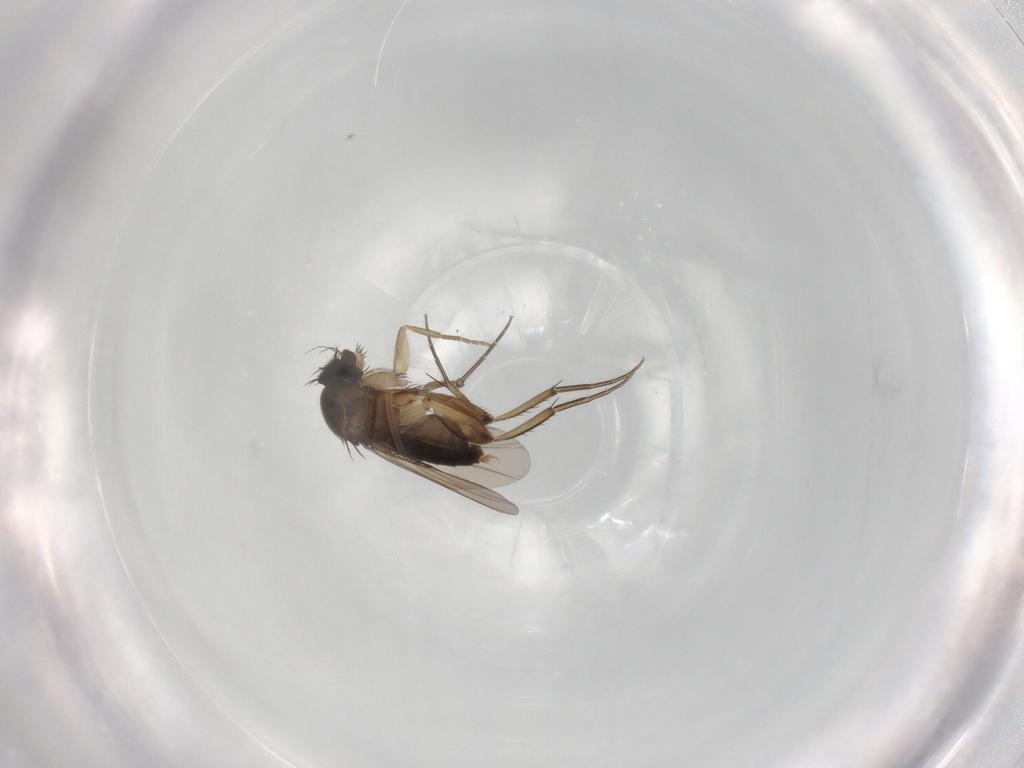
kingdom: Animalia
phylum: Arthropoda
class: Insecta
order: Diptera
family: Phoridae
